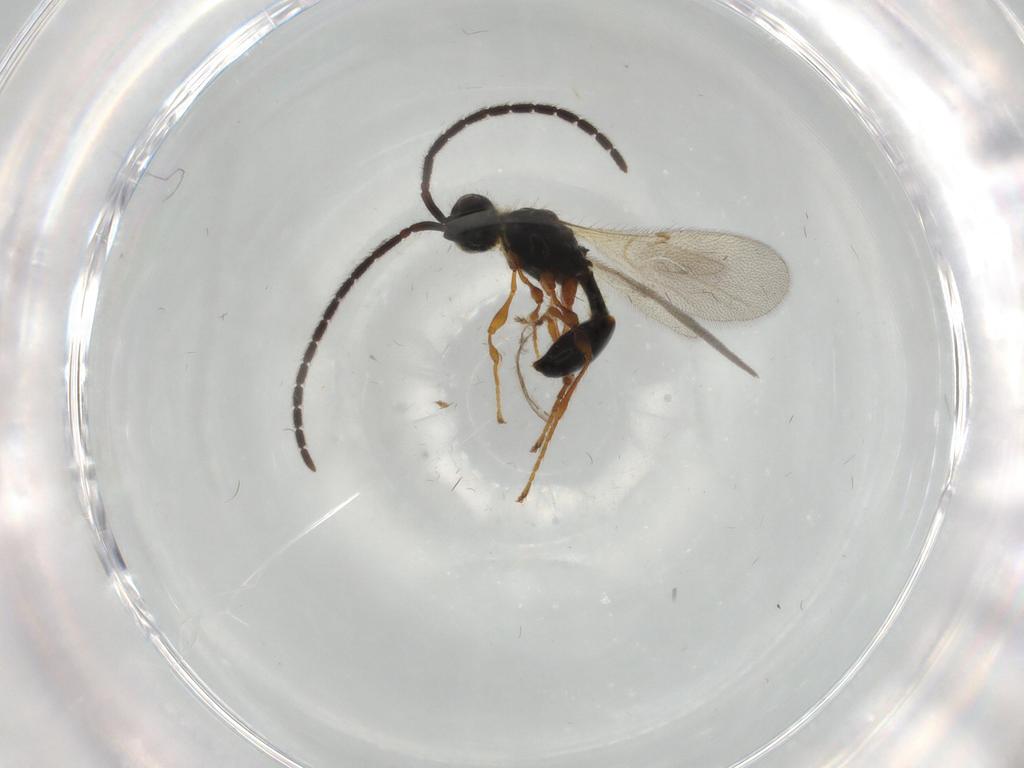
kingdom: Animalia
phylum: Arthropoda
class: Insecta
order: Hymenoptera
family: Diapriidae
